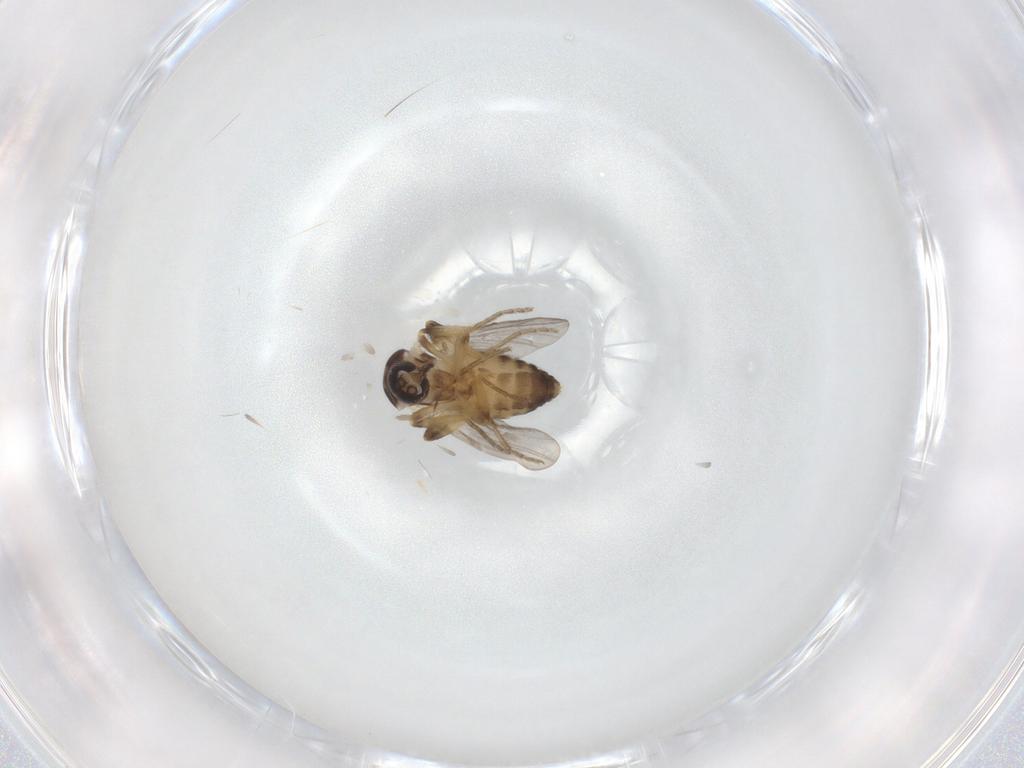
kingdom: Animalia
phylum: Arthropoda
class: Insecta
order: Diptera
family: Ceratopogonidae
